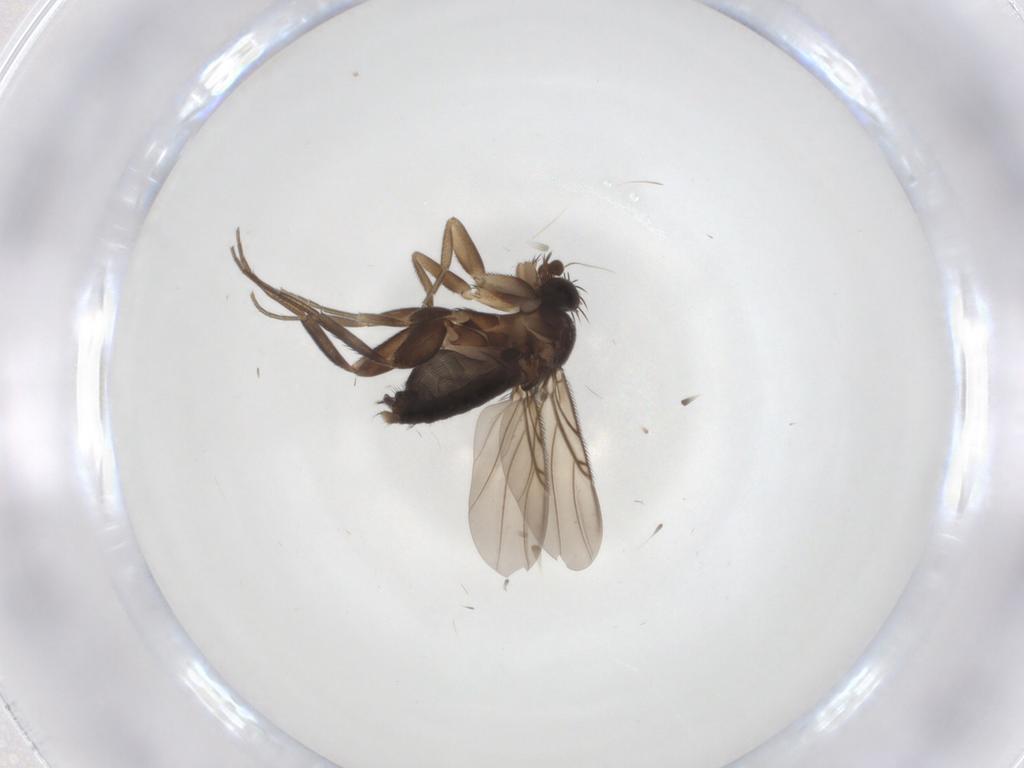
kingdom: Animalia
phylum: Arthropoda
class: Insecta
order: Diptera
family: Phoridae
